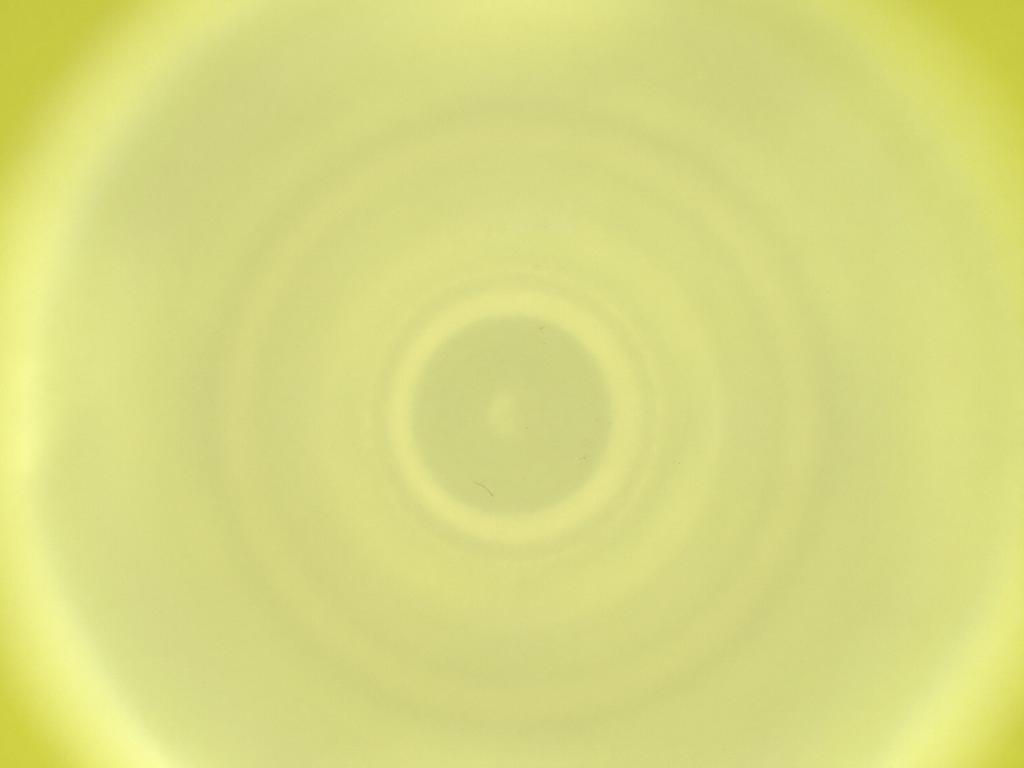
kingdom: Animalia
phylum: Arthropoda
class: Insecta
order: Diptera
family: Cecidomyiidae
